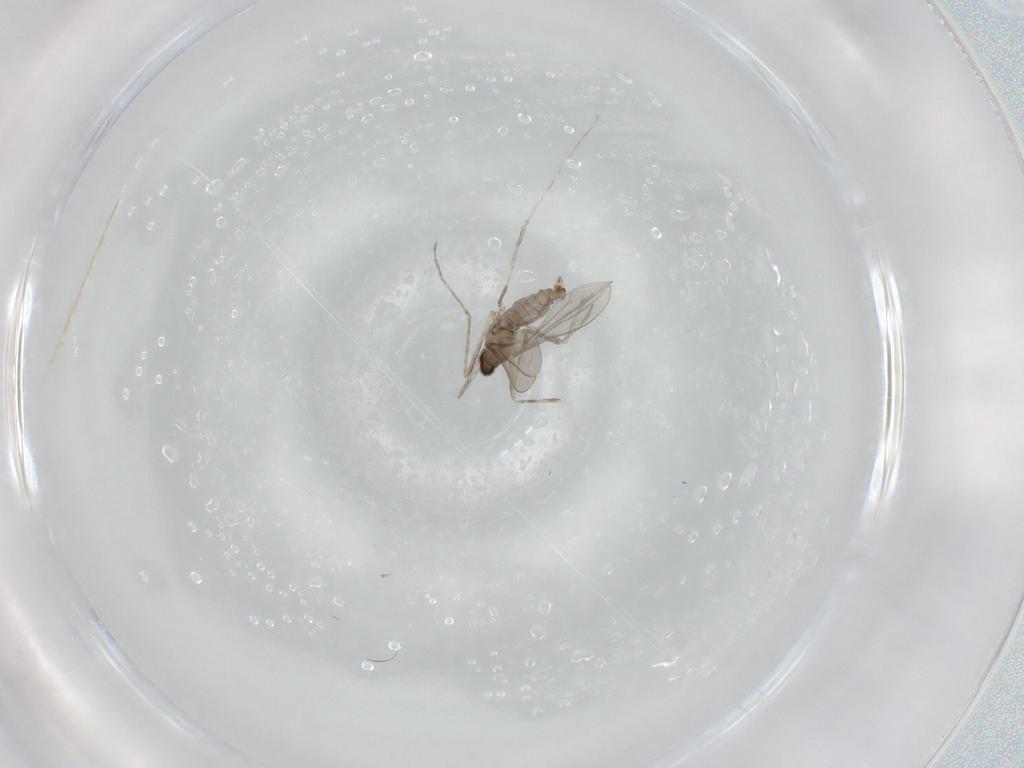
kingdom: Animalia
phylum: Arthropoda
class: Insecta
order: Diptera
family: Cecidomyiidae
